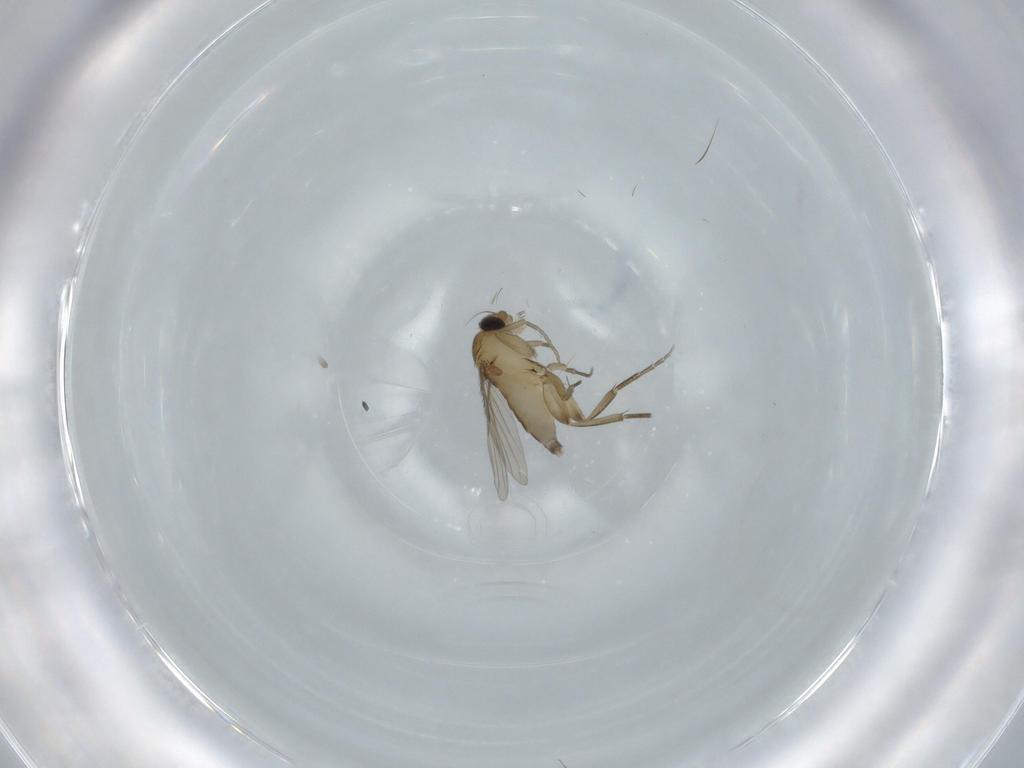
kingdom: Animalia
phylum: Arthropoda
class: Insecta
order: Diptera
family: Phoridae
